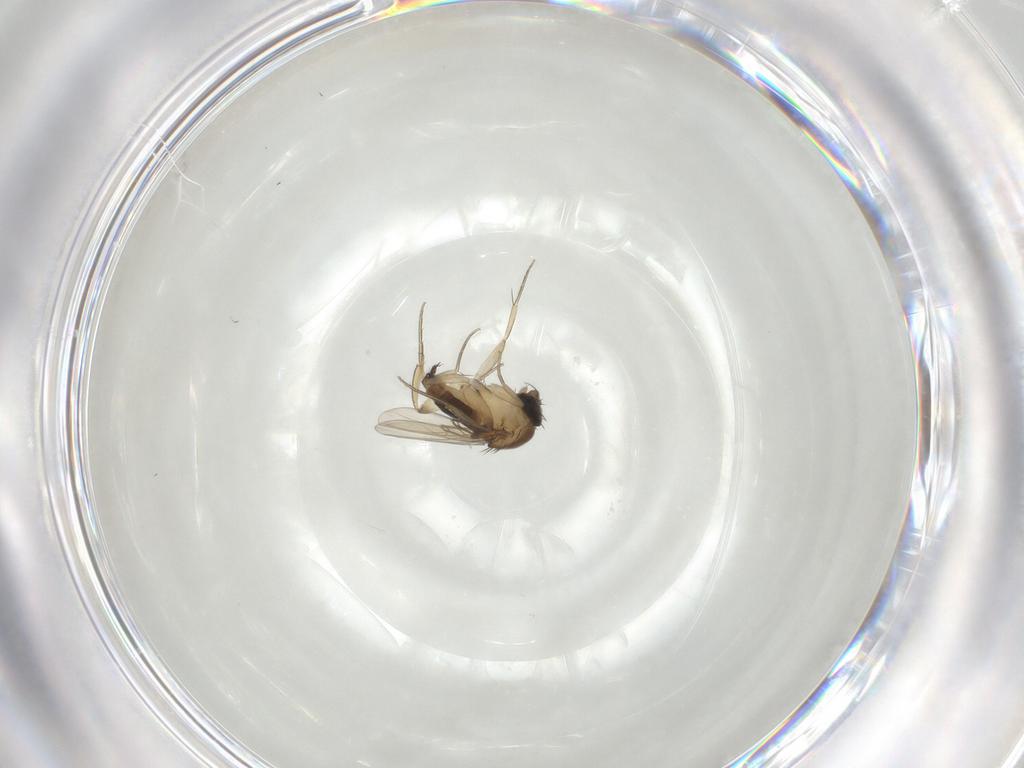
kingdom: Animalia
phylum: Arthropoda
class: Insecta
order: Diptera
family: Phoridae
